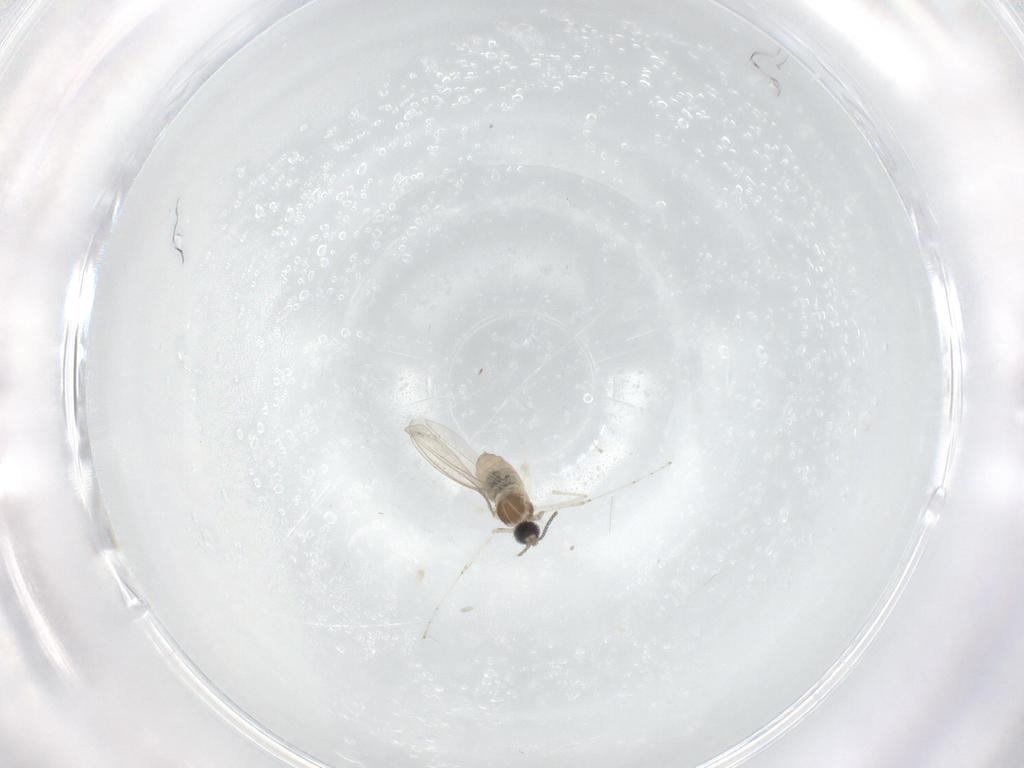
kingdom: Animalia
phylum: Arthropoda
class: Insecta
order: Diptera
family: Cecidomyiidae
